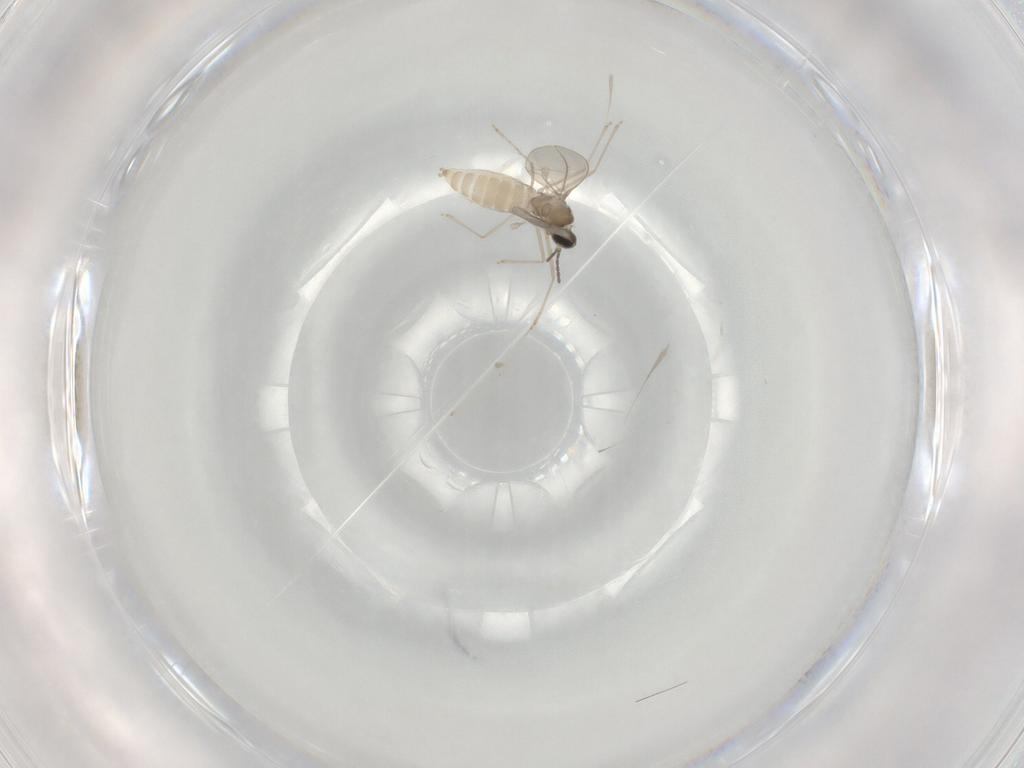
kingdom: Animalia
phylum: Arthropoda
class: Insecta
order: Diptera
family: Cecidomyiidae
